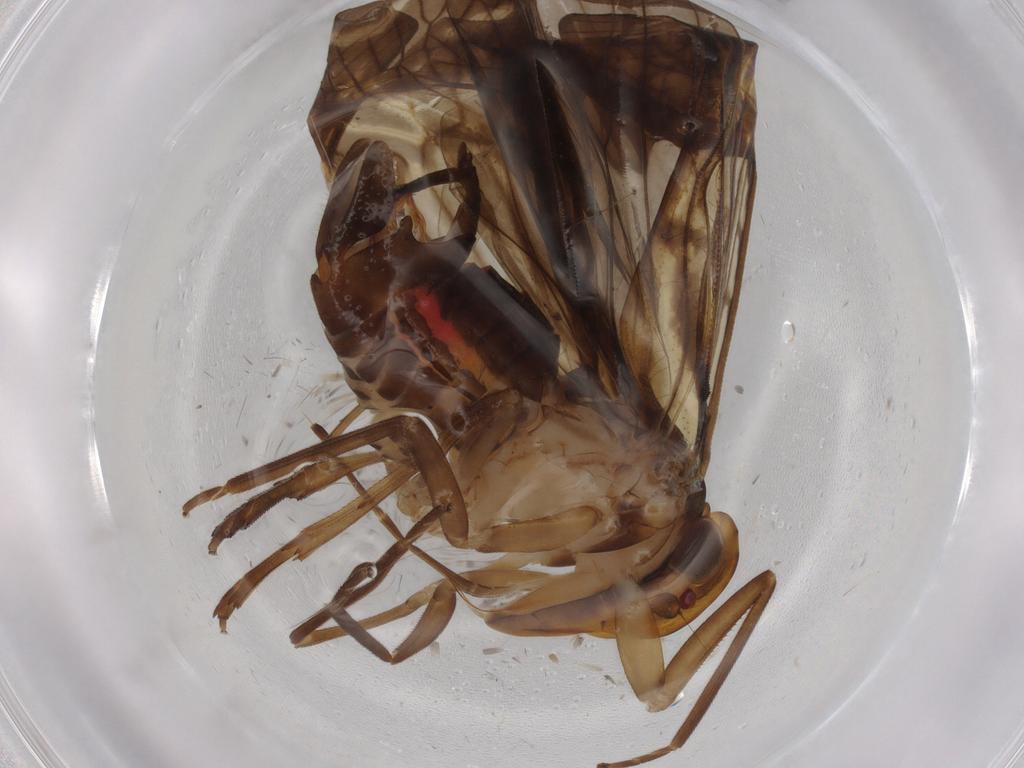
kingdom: Animalia
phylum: Arthropoda
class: Insecta
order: Hemiptera
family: Cixiidae
